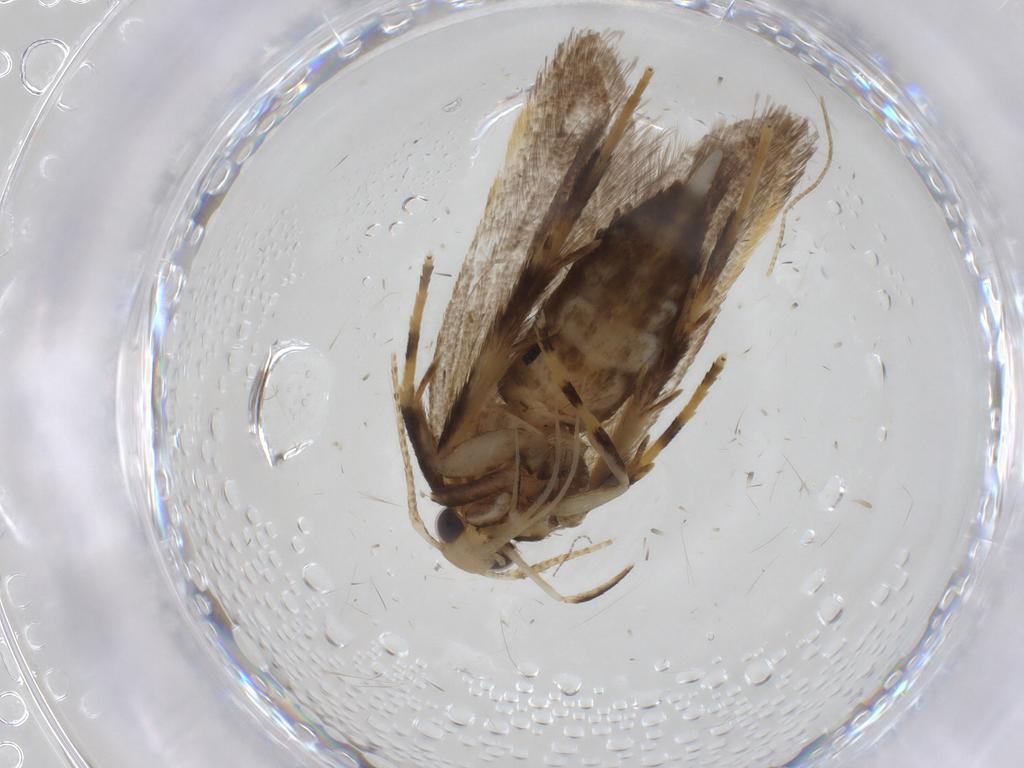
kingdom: Animalia
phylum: Arthropoda
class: Insecta
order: Lepidoptera
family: Lecithoceridae
